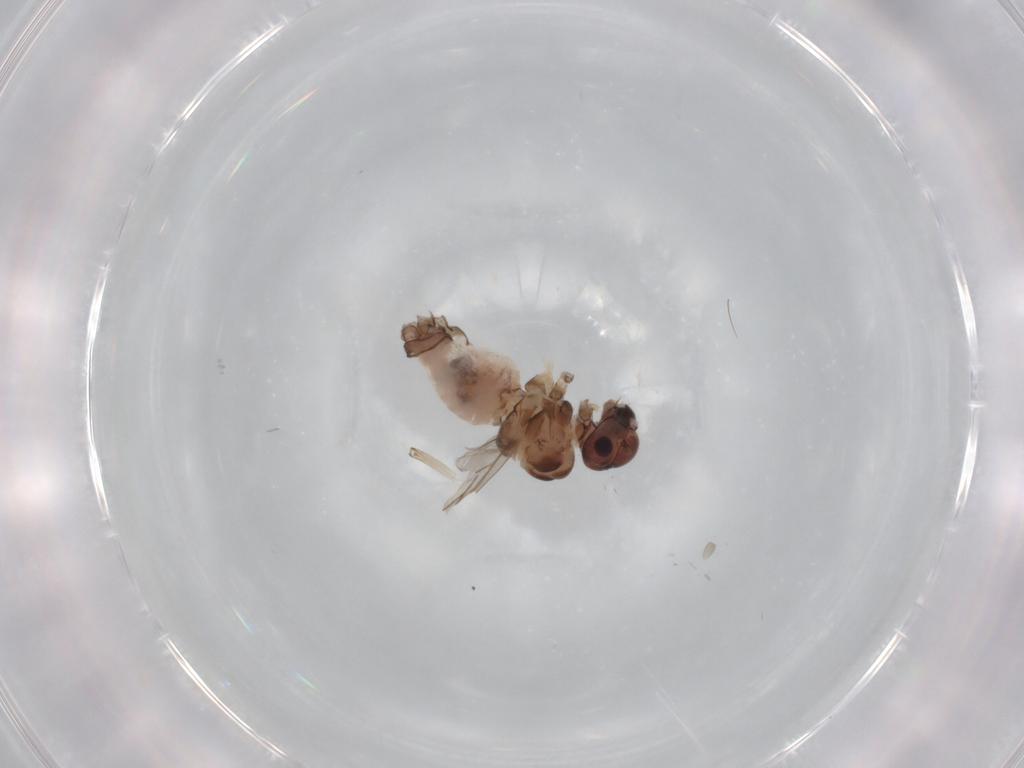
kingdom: Animalia
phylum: Arthropoda
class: Insecta
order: Psocodea
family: Peripsocidae
